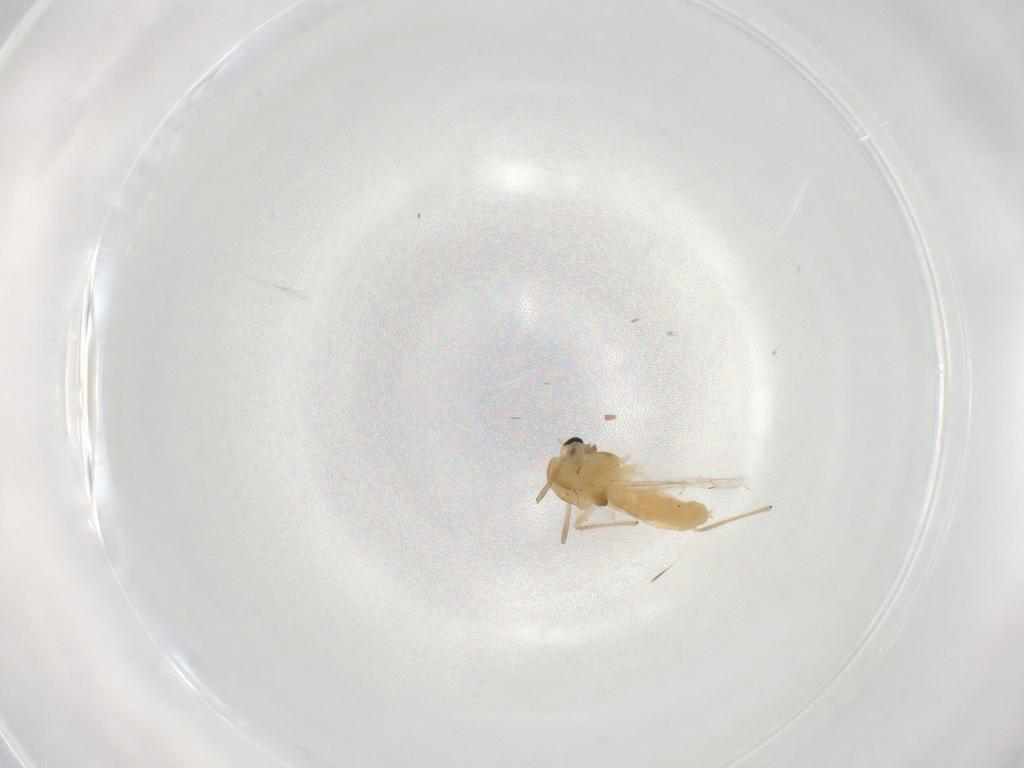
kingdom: Animalia
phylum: Arthropoda
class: Insecta
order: Diptera
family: Chironomidae
